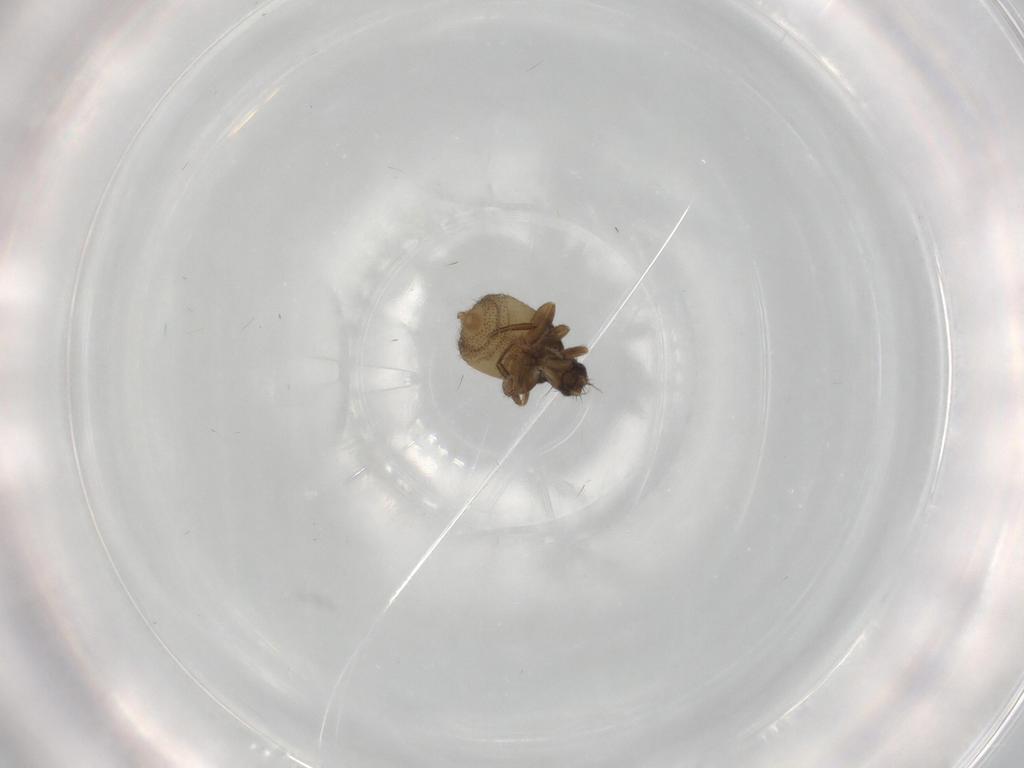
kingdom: Animalia
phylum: Arthropoda
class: Insecta
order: Diptera
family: Phoridae
